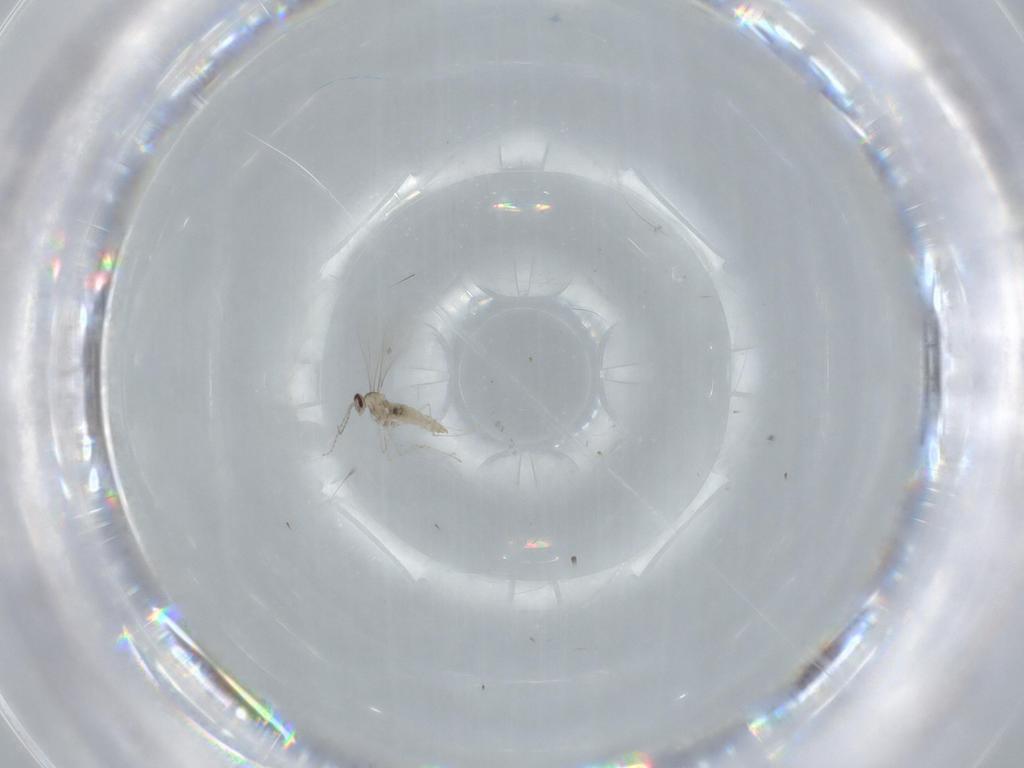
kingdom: Animalia
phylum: Arthropoda
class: Insecta
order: Diptera
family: Cecidomyiidae
